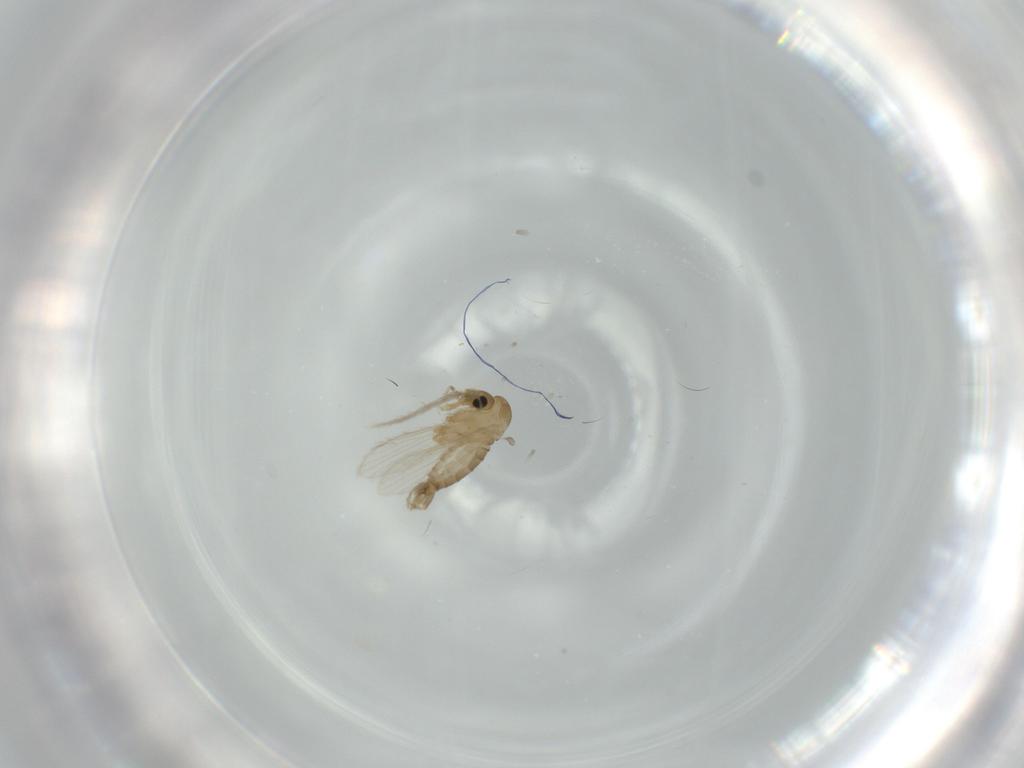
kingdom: Animalia
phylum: Arthropoda
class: Insecta
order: Diptera
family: Psychodidae
